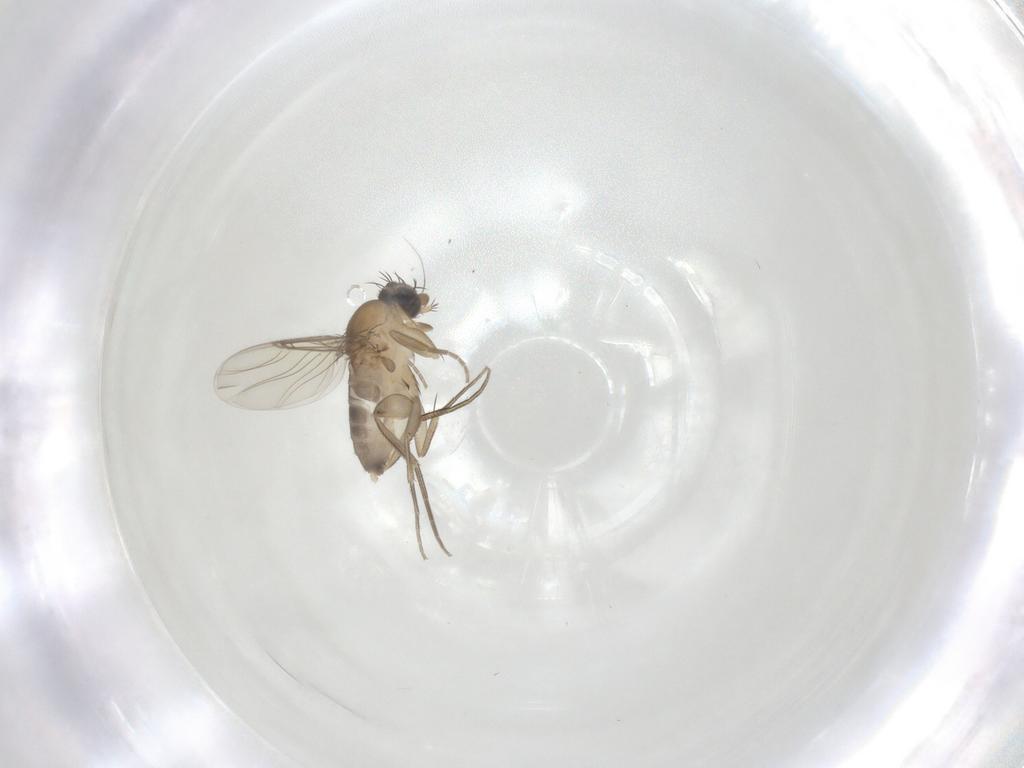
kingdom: Animalia
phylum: Arthropoda
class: Insecta
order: Diptera
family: Phoridae
